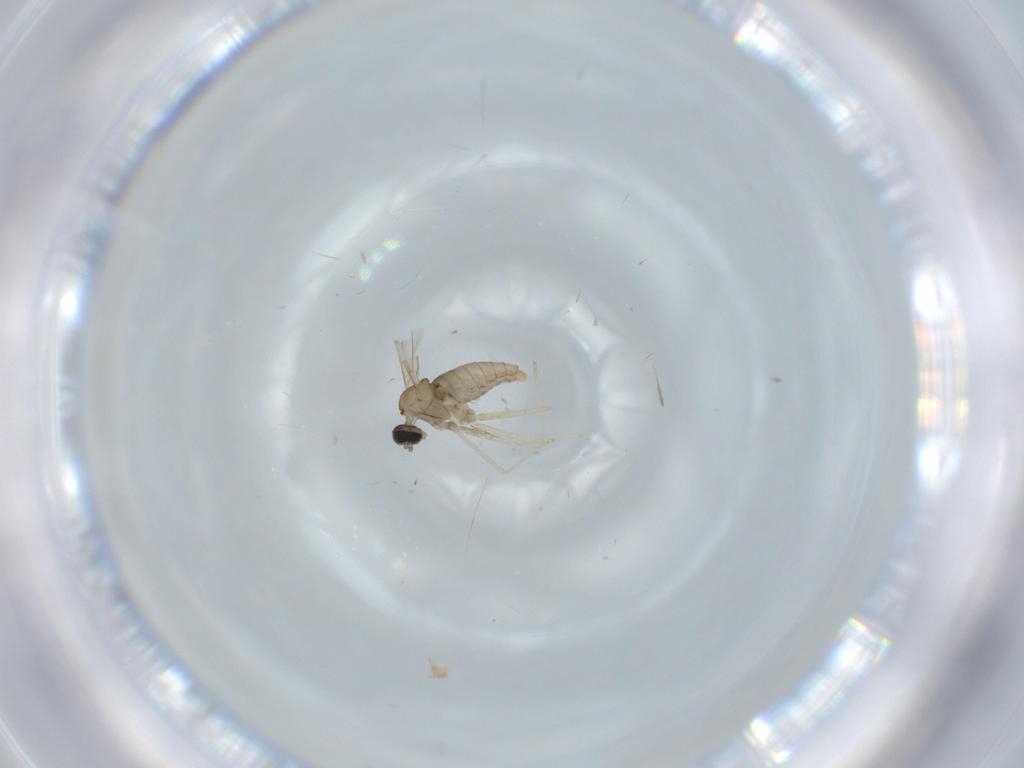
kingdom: Animalia
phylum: Arthropoda
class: Insecta
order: Diptera
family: Cecidomyiidae
